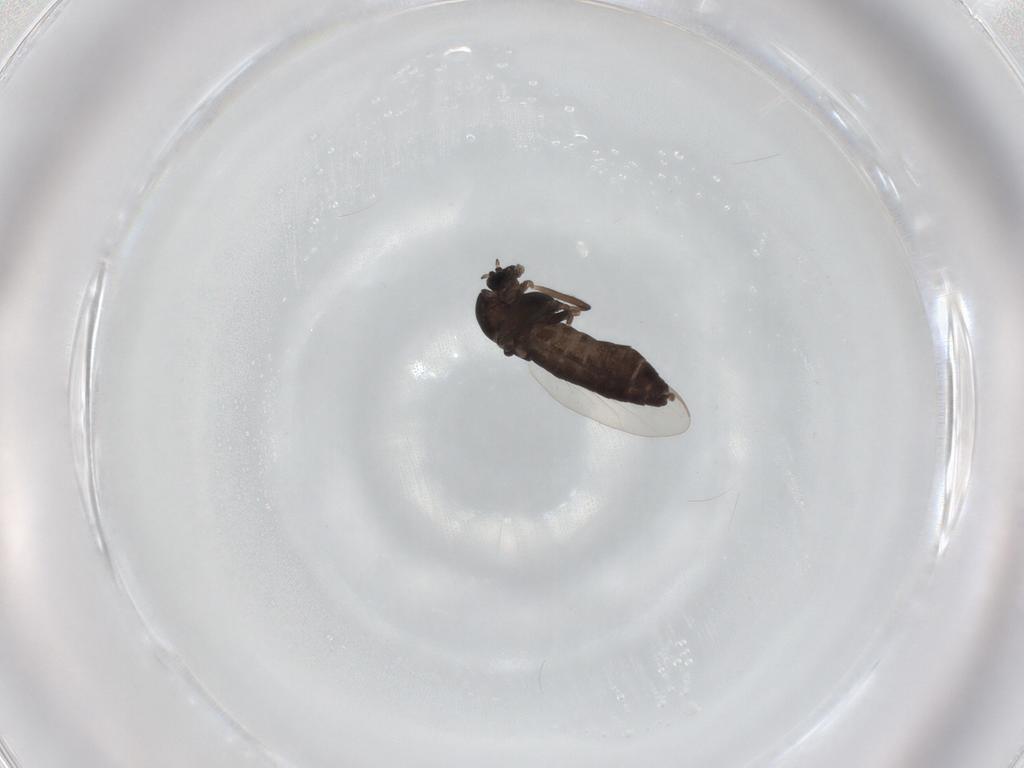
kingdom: Animalia
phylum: Arthropoda
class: Insecta
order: Diptera
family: Chironomidae
